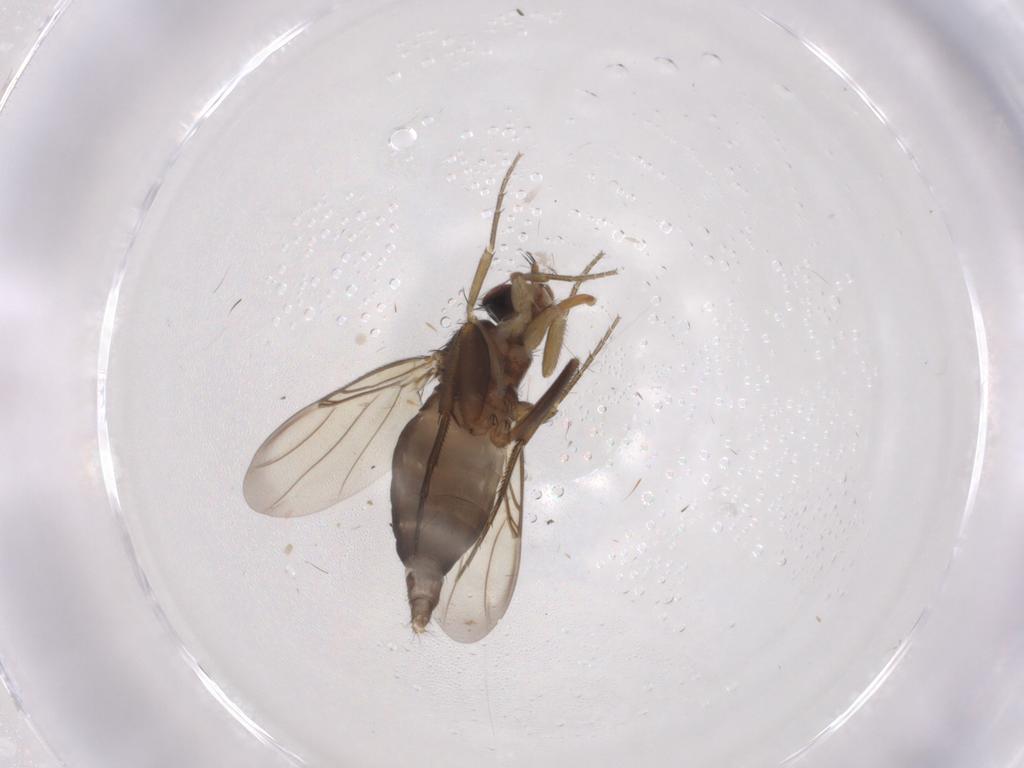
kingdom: Animalia
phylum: Arthropoda
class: Insecta
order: Diptera
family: Phoridae
